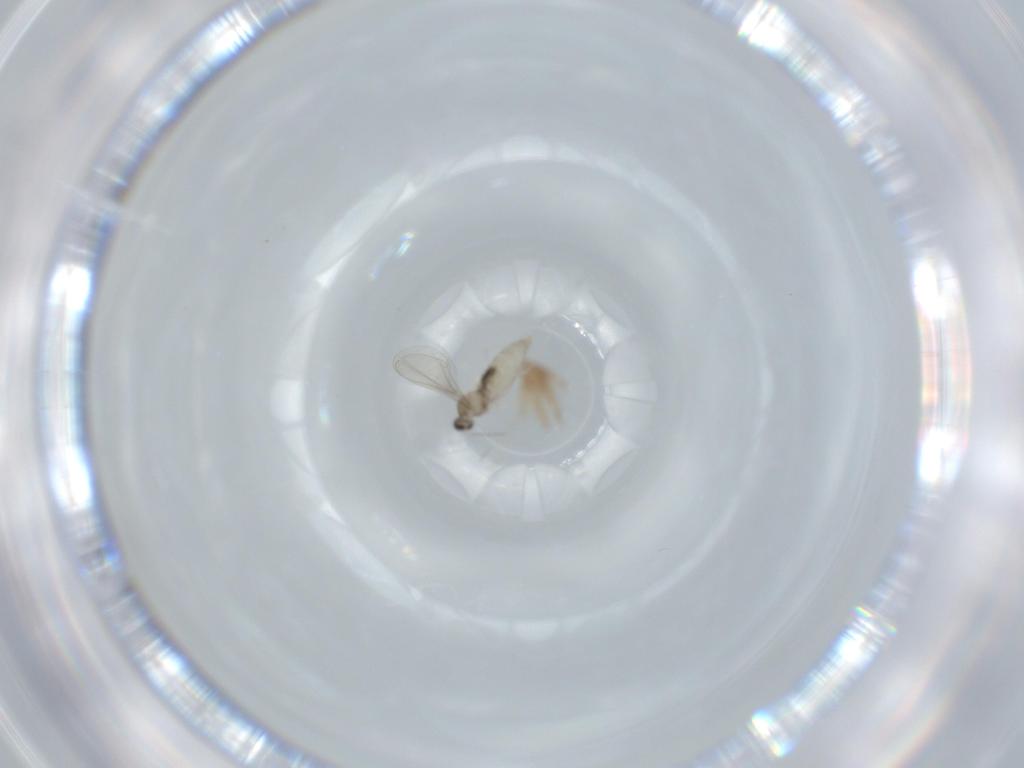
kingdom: Animalia
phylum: Arthropoda
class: Insecta
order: Diptera
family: Cecidomyiidae
